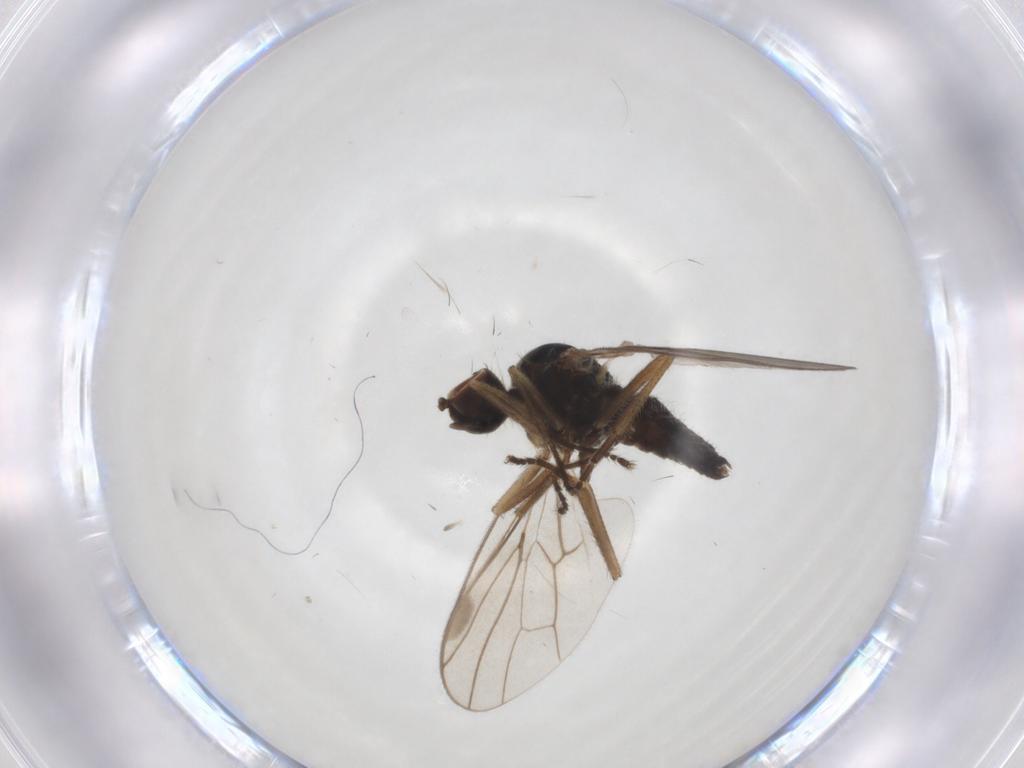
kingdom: Animalia
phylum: Arthropoda
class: Insecta
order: Diptera
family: Hybotidae
